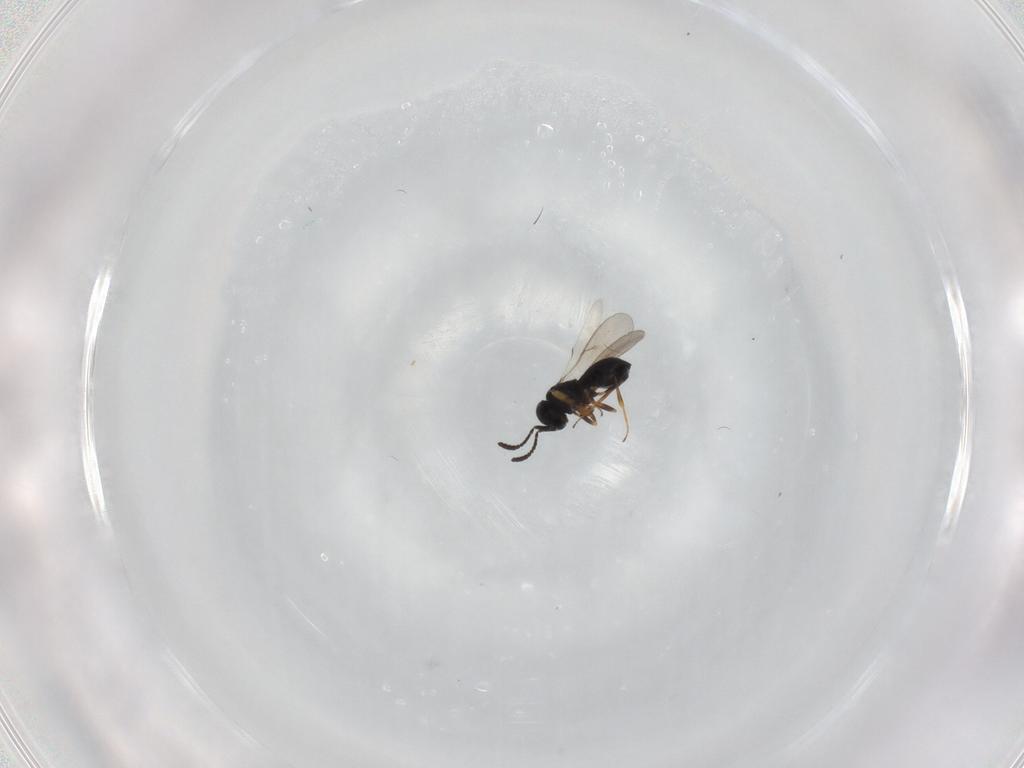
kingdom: Animalia
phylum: Arthropoda
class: Insecta
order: Hymenoptera
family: Scelionidae
